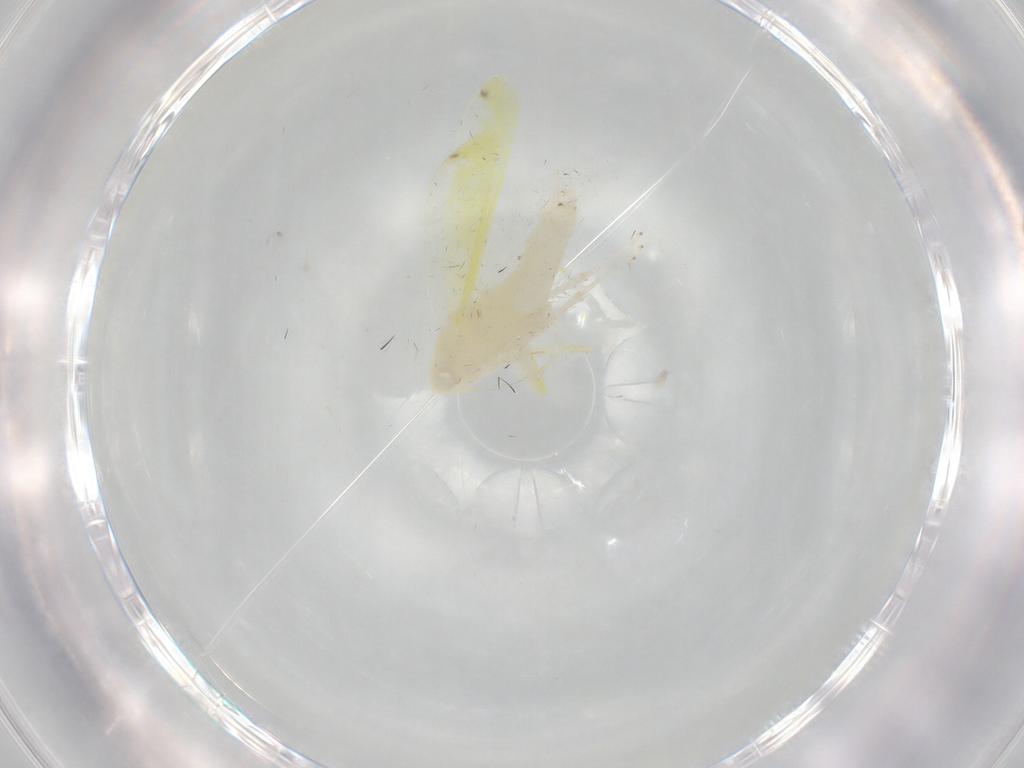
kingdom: Animalia
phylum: Arthropoda
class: Insecta
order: Hemiptera
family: Cicadellidae
